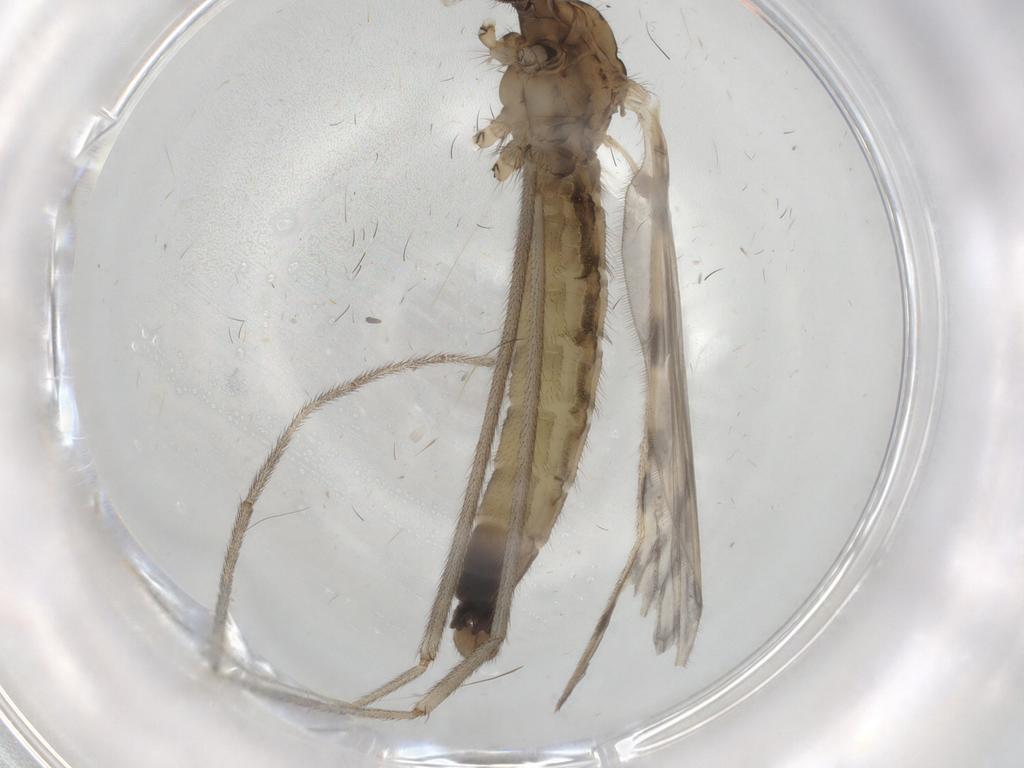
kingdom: Animalia
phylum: Arthropoda
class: Insecta
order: Diptera
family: Phoridae
